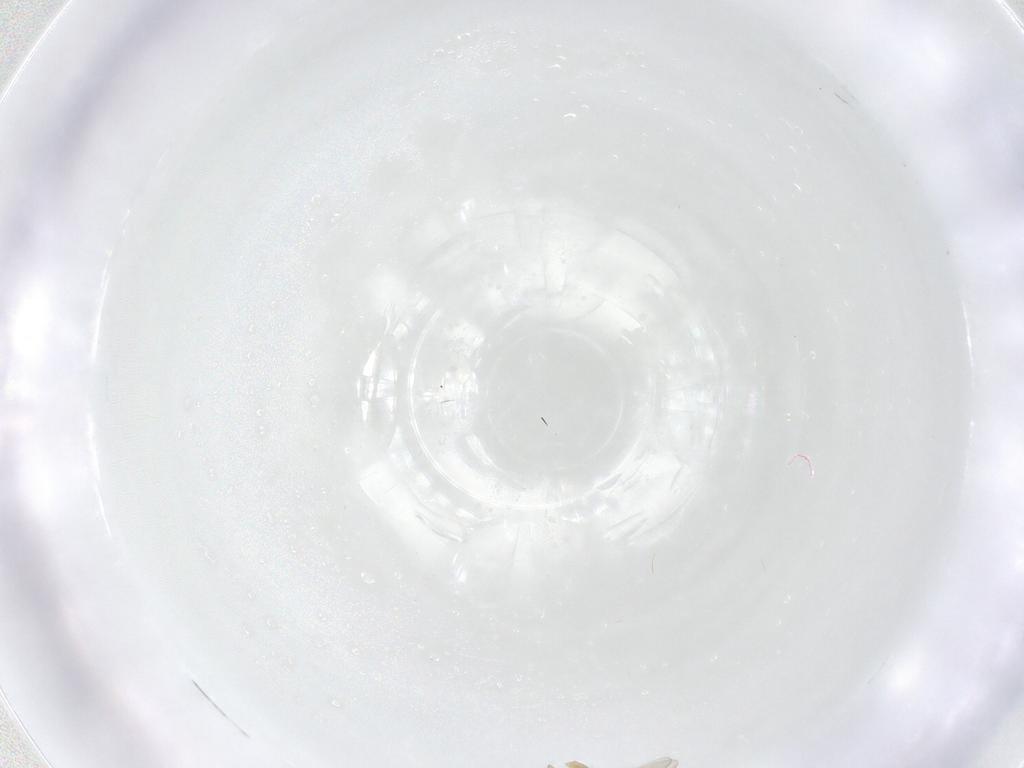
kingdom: Animalia
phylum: Arthropoda
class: Insecta
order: Diptera
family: Chironomidae
